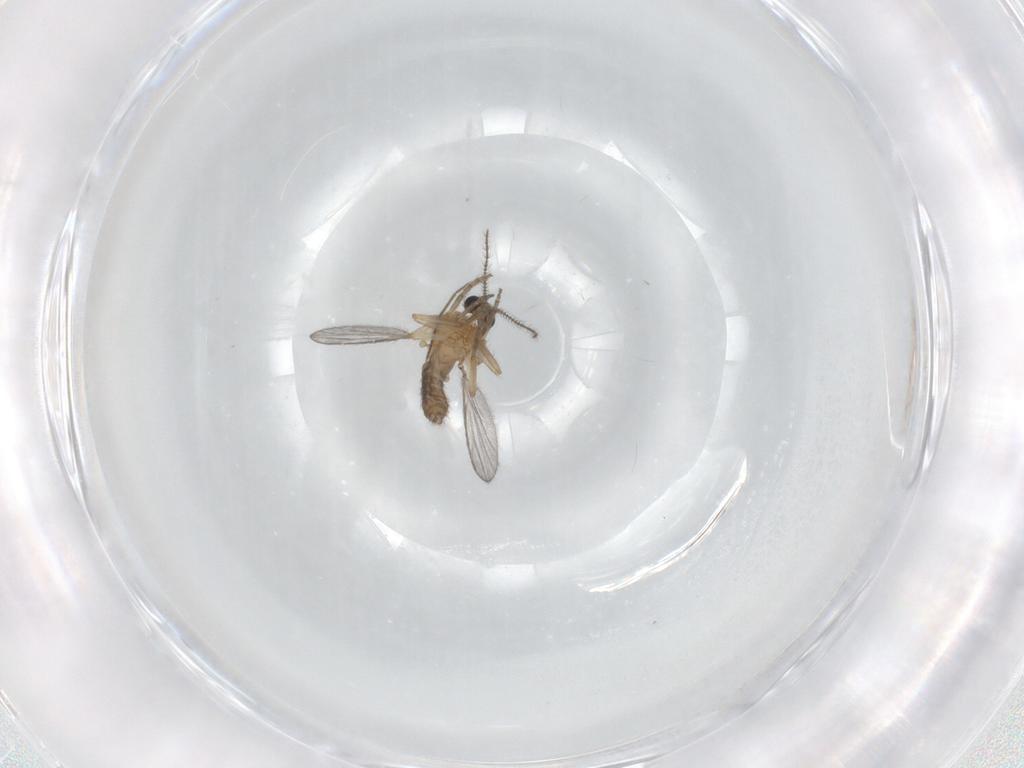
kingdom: Animalia
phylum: Arthropoda
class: Insecta
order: Diptera
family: Ceratopogonidae
